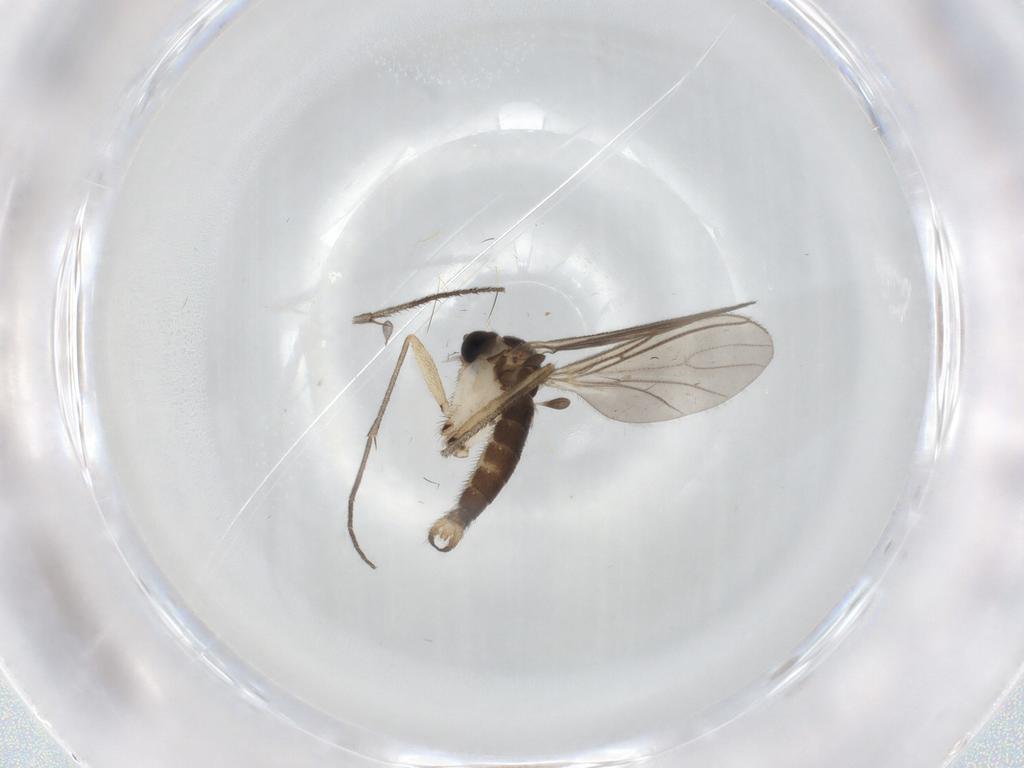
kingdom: Animalia
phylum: Arthropoda
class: Insecta
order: Diptera
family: Sciaridae
